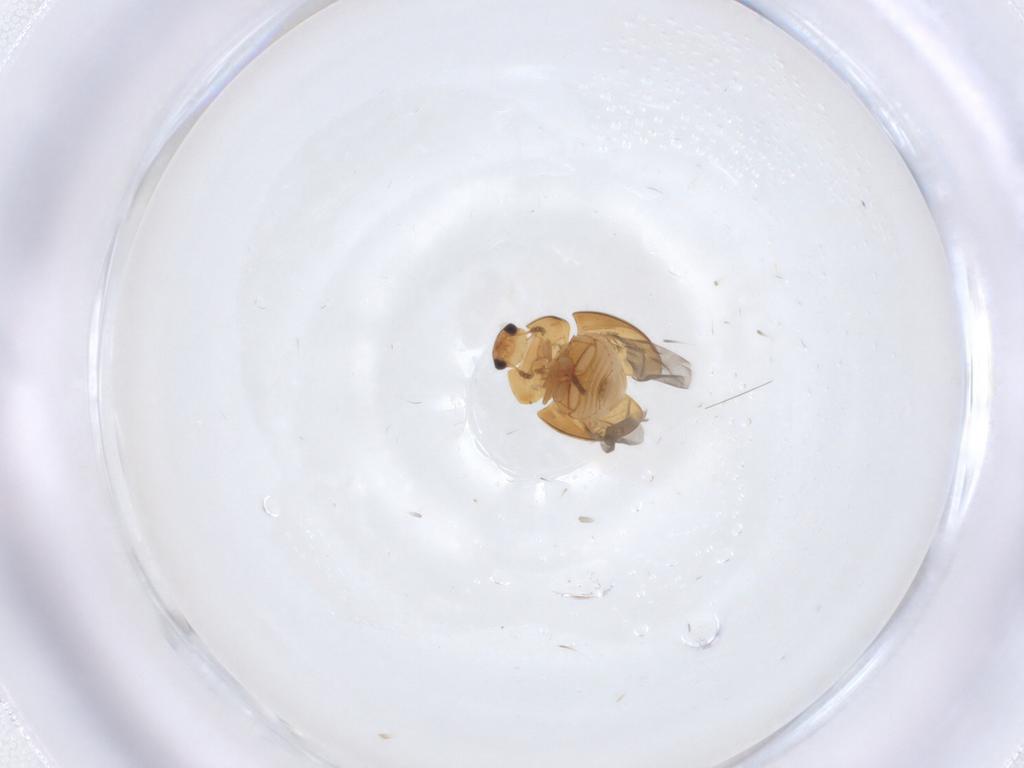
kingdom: Animalia
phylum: Arthropoda
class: Insecta
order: Coleoptera
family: Phalacridae
